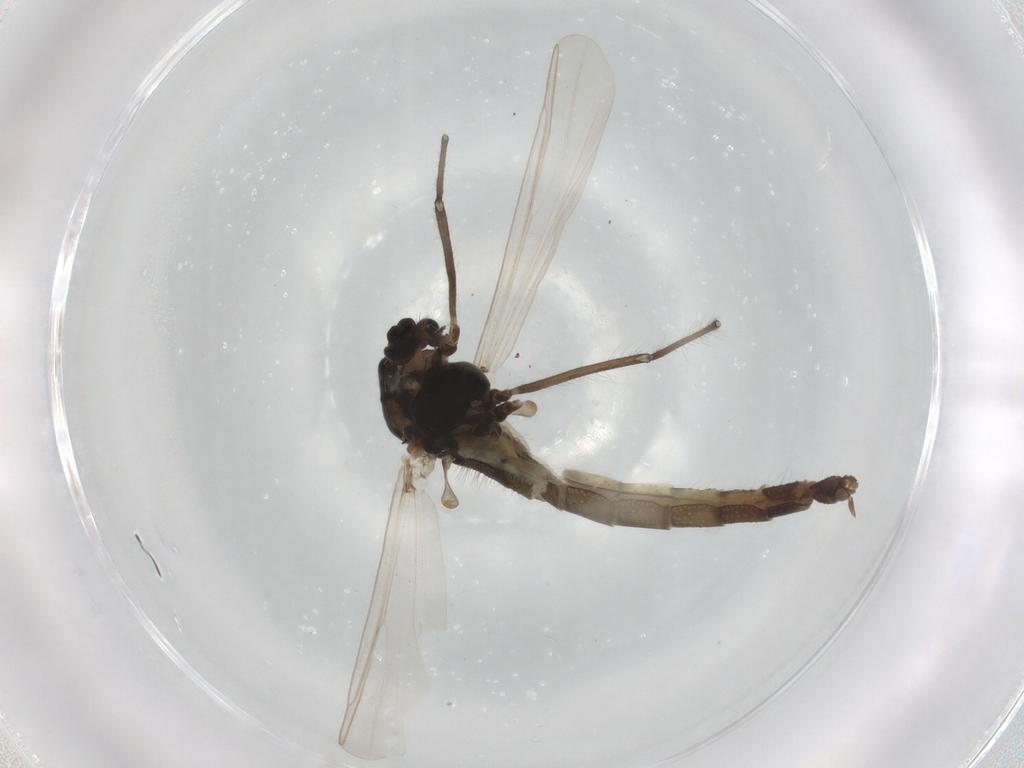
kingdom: Animalia
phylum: Arthropoda
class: Insecta
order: Diptera
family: Chironomidae
